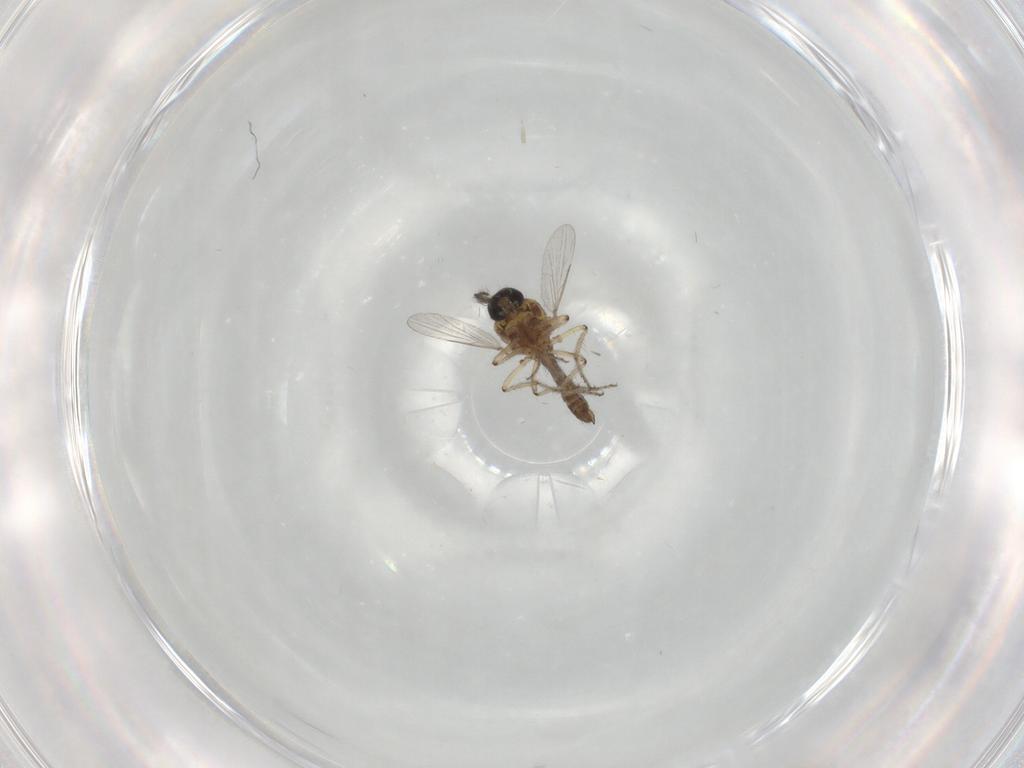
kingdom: Animalia
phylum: Arthropoda
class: Insecta
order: Diptera
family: Ceratopogonidae
